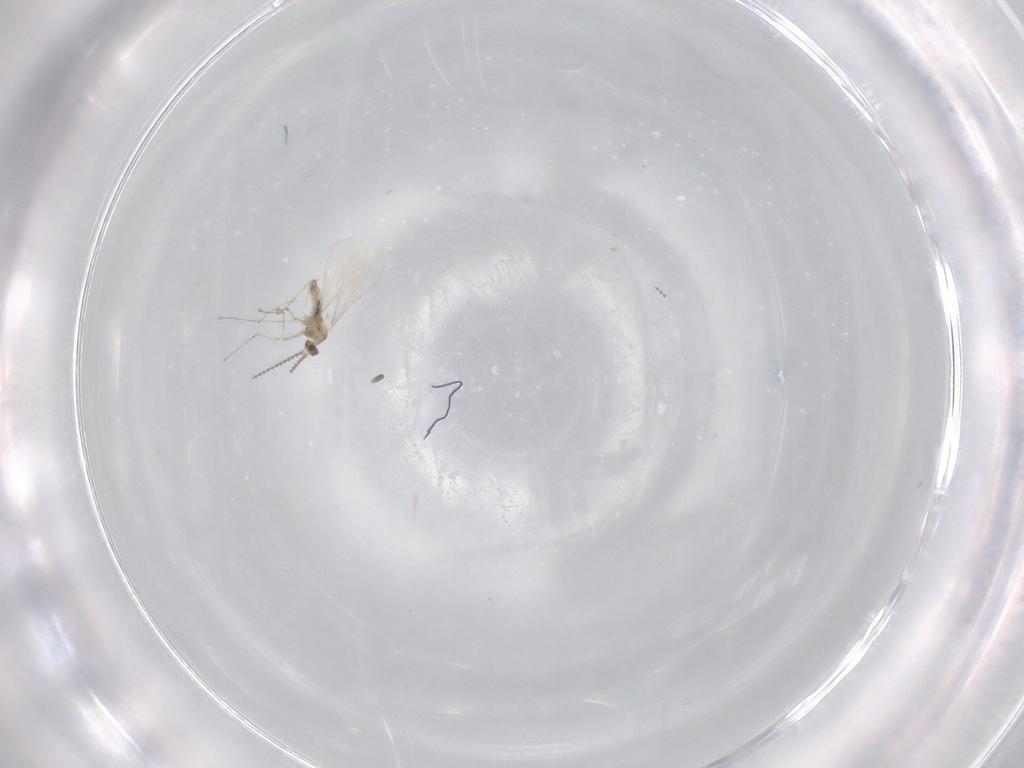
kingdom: Animalia
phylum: Arthropoda
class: Insecta
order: Diptera
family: Cecidomyiidae
